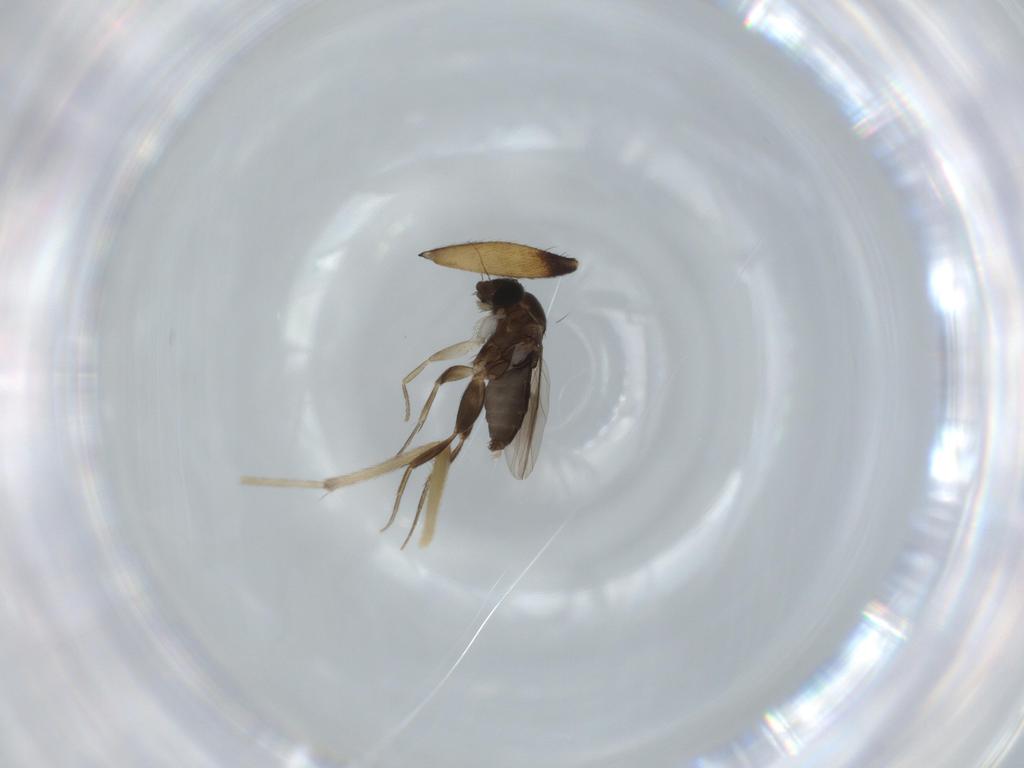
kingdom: Animalia
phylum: Arthropoda
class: Insecta
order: Diptera
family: Phoridae
